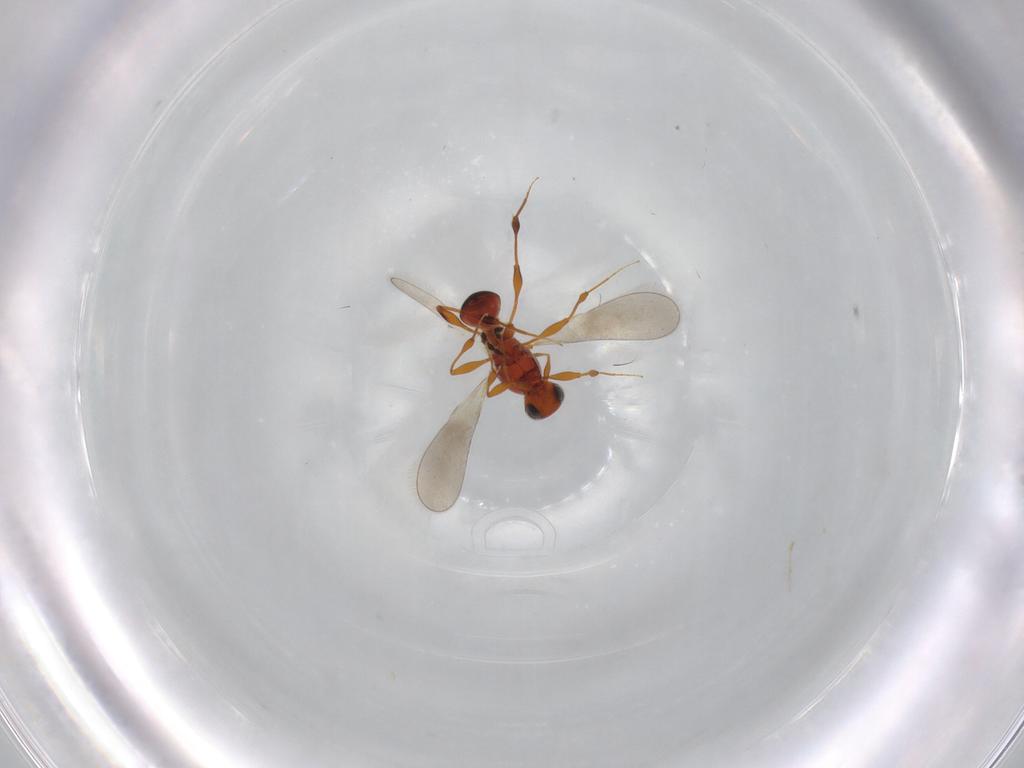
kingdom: Animalia
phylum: Arthropoda
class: Insecta
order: Hymenoptera
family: Platygastridae
